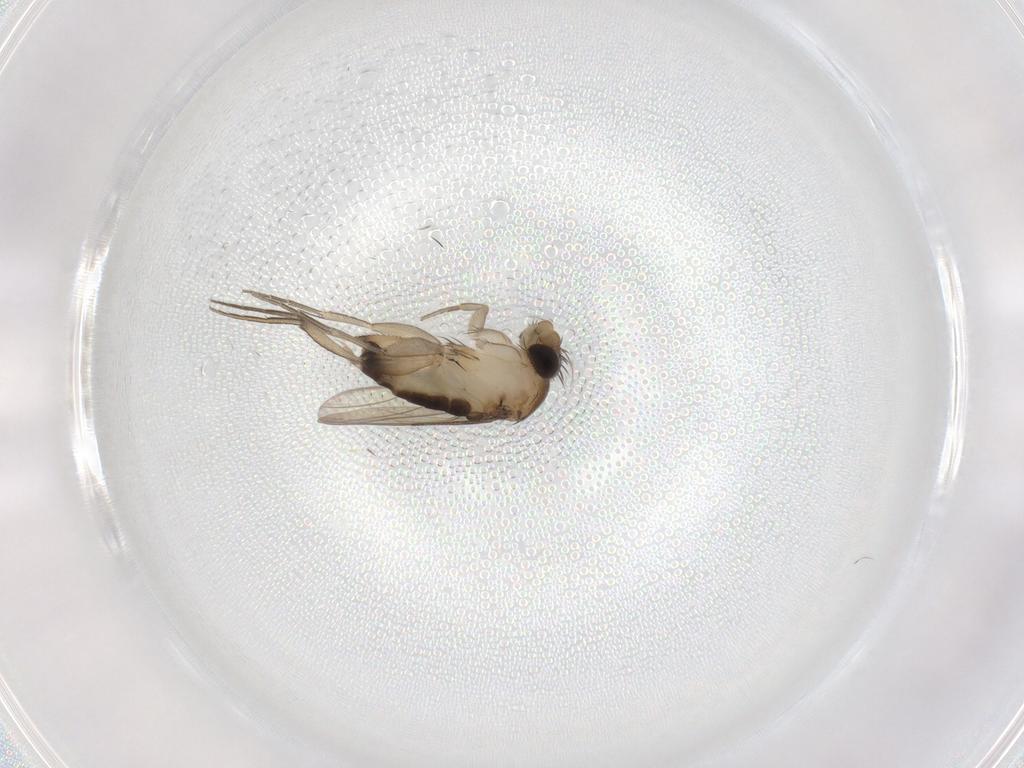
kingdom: Animalia
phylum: Arthropoda
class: Insecta
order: Diptera
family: Phoridae
